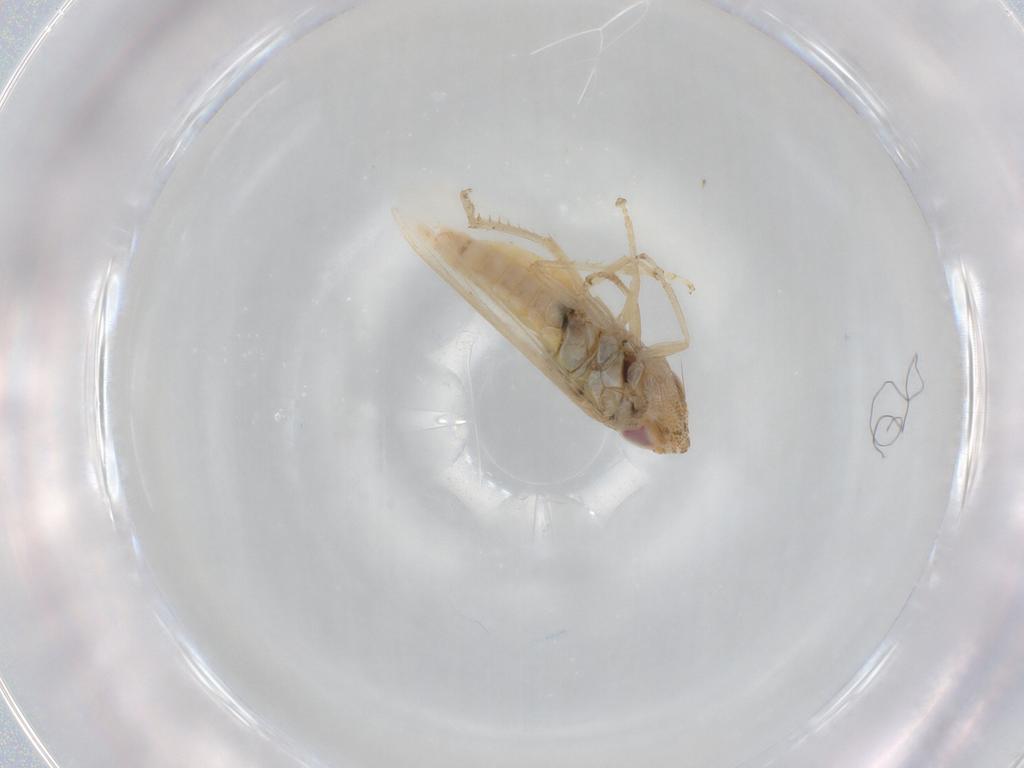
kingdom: Animalia
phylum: Arthropoda
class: Insecta
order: Hemiptera
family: Cicadellidae
